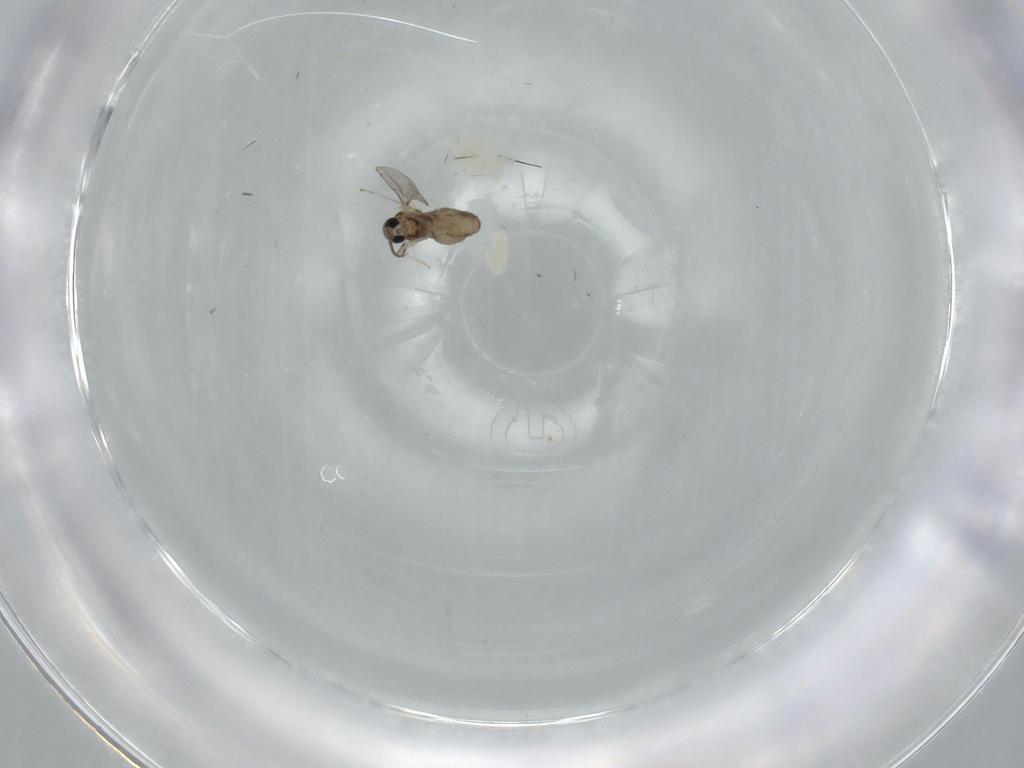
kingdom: Animalia
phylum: Arthropoda
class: Insecta
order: Diptera
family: Cecidomyiidae
